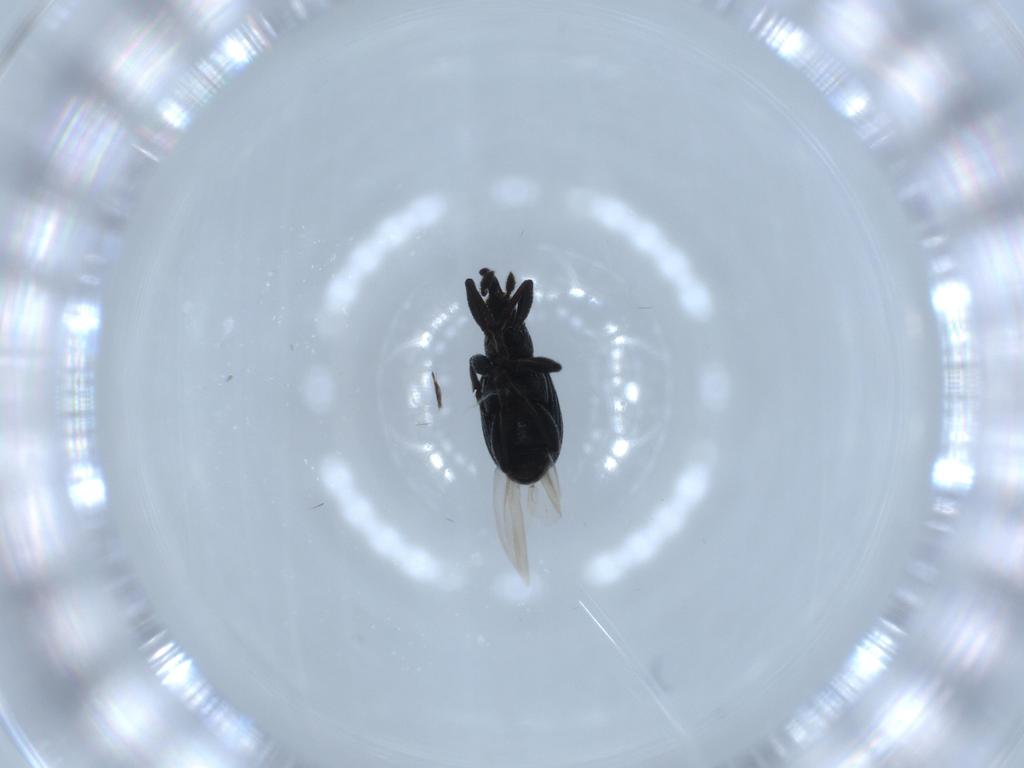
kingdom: Animalia
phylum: Arthropoda
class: Insecta
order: Coleoptera
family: Brentidae
